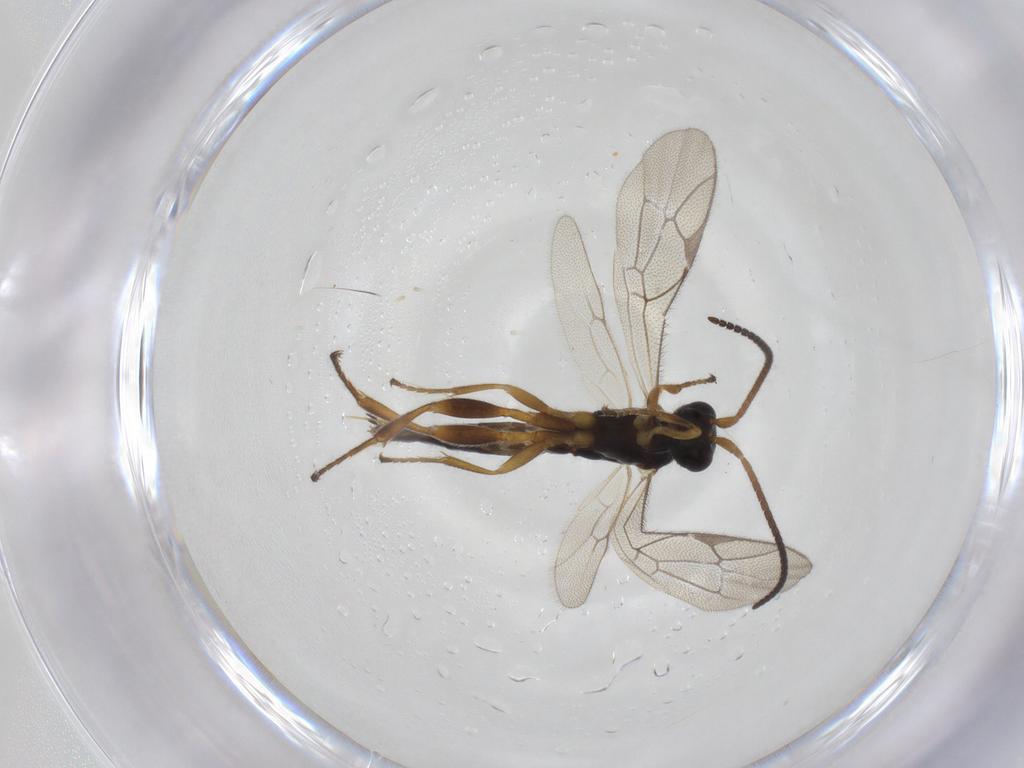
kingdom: Animalia
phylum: Arthropoda
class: Insecta
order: Hymenoptera
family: Ichneumonidae
